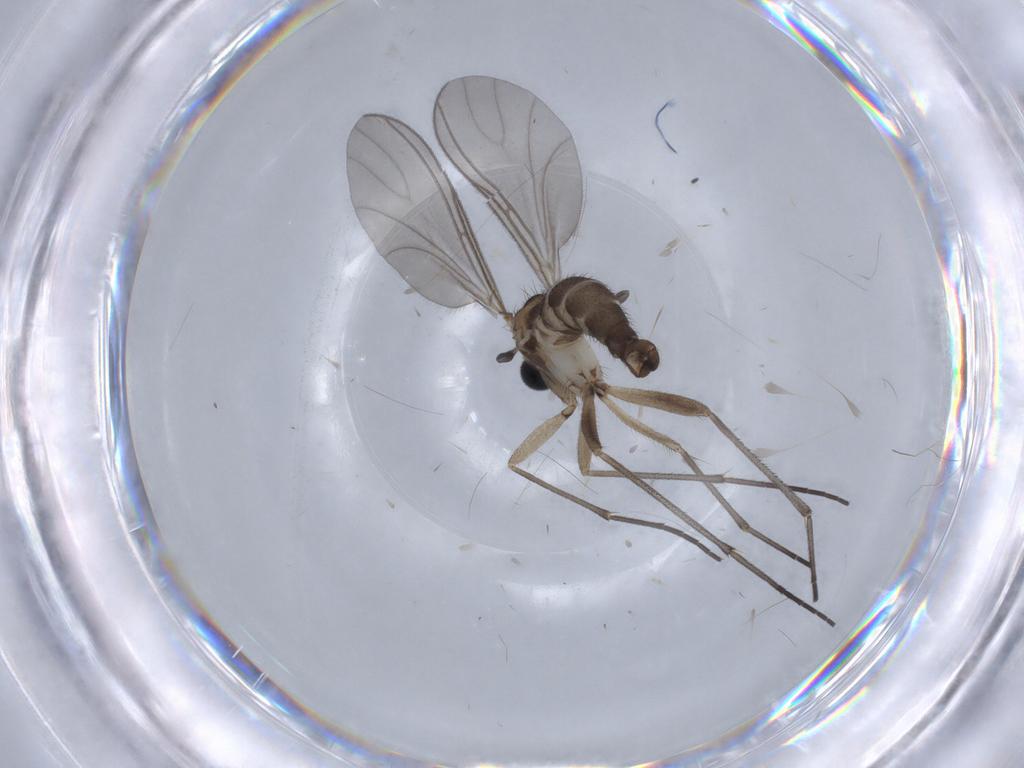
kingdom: Animalia
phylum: Arthropoda
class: Insecta
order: Diptera
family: Sciaridae
